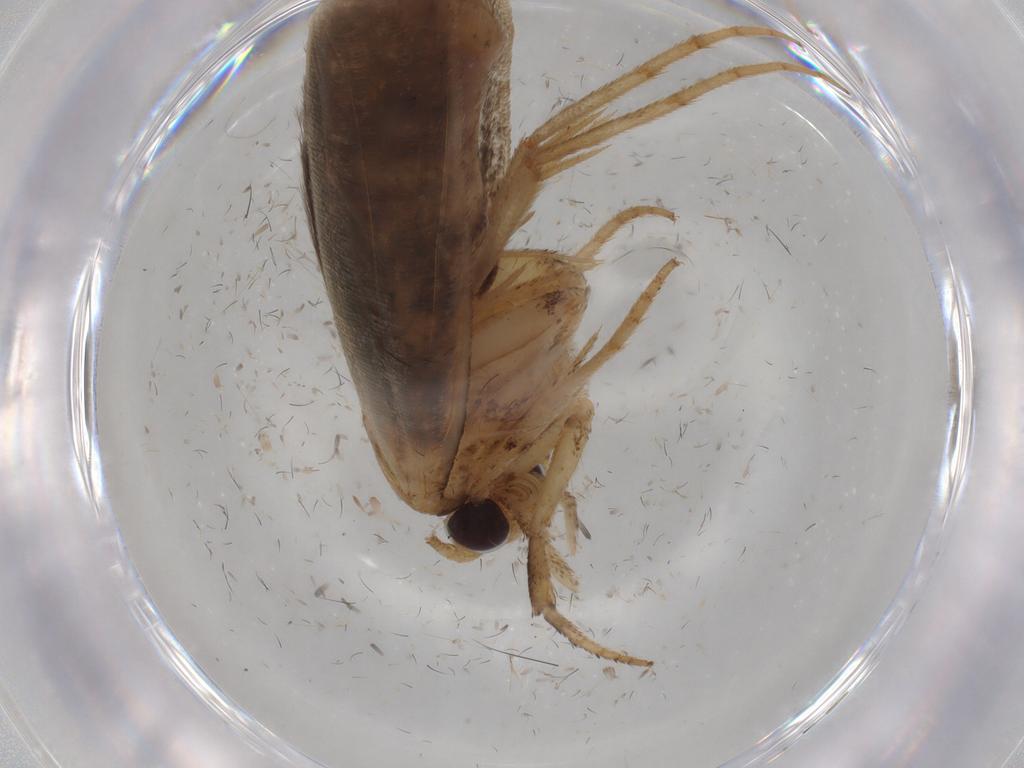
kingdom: Animalia
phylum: Arthropoda
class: Insecta
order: Lepidoptera
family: Yponomeutidae
